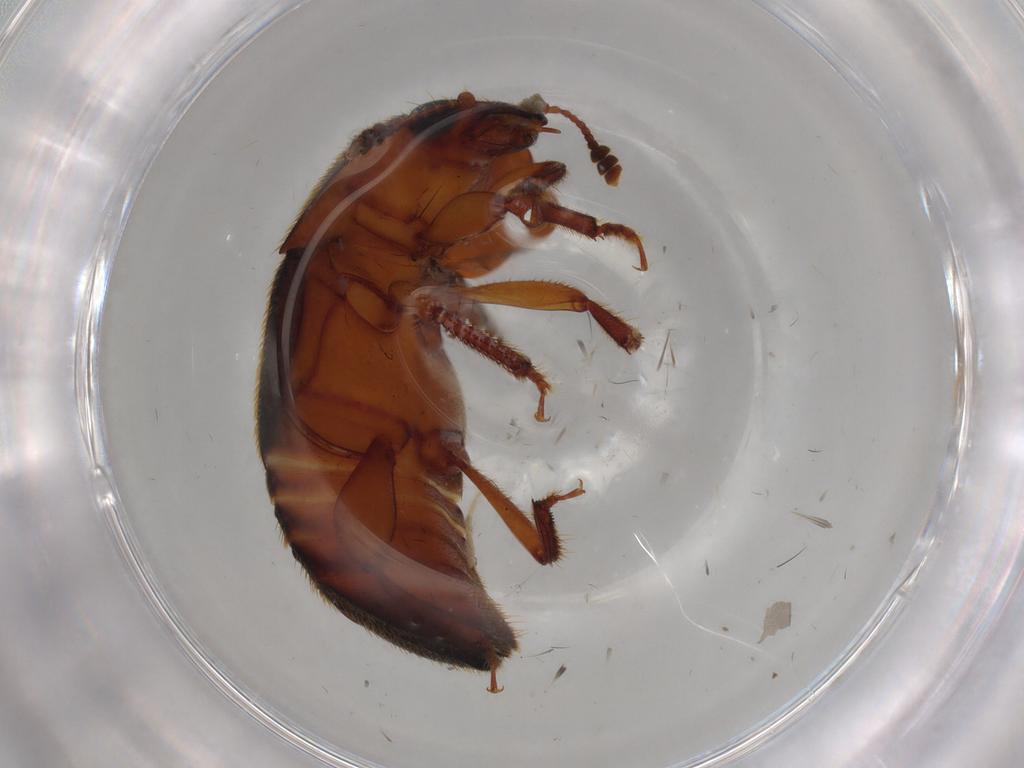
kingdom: Animalia
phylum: Arthropoda
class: Insecta
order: Coleoptera
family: Nitidulidae
